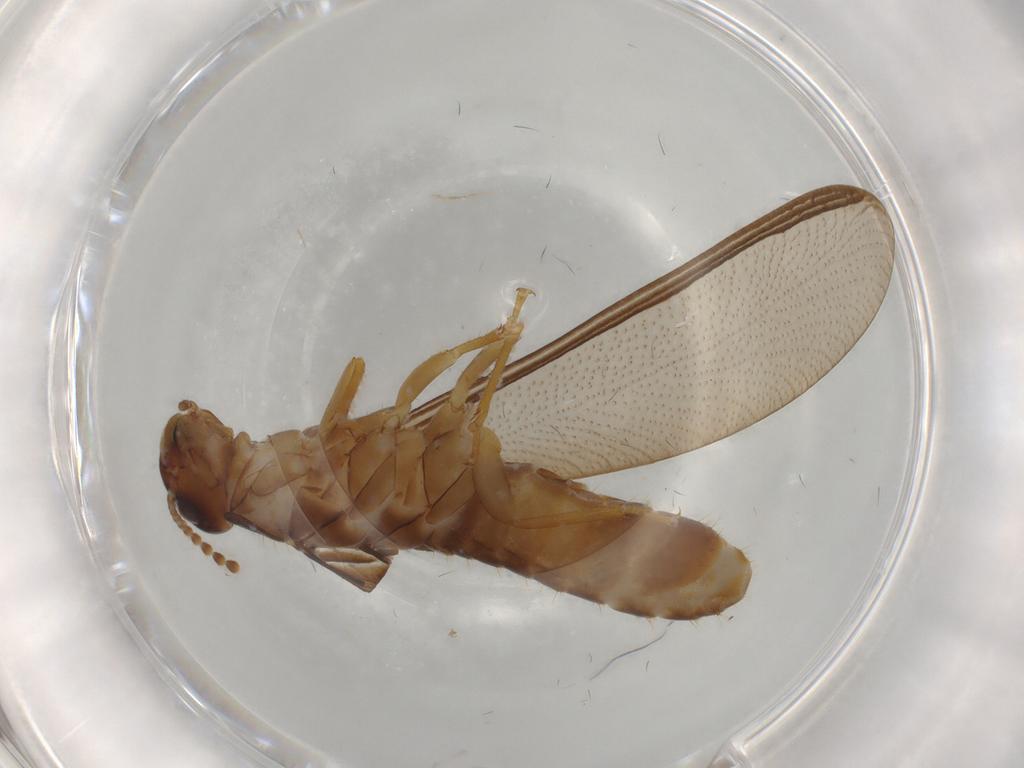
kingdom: Animalia
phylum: Arthropoda
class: Insecta
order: Blattodea
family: Kalotermitidae
